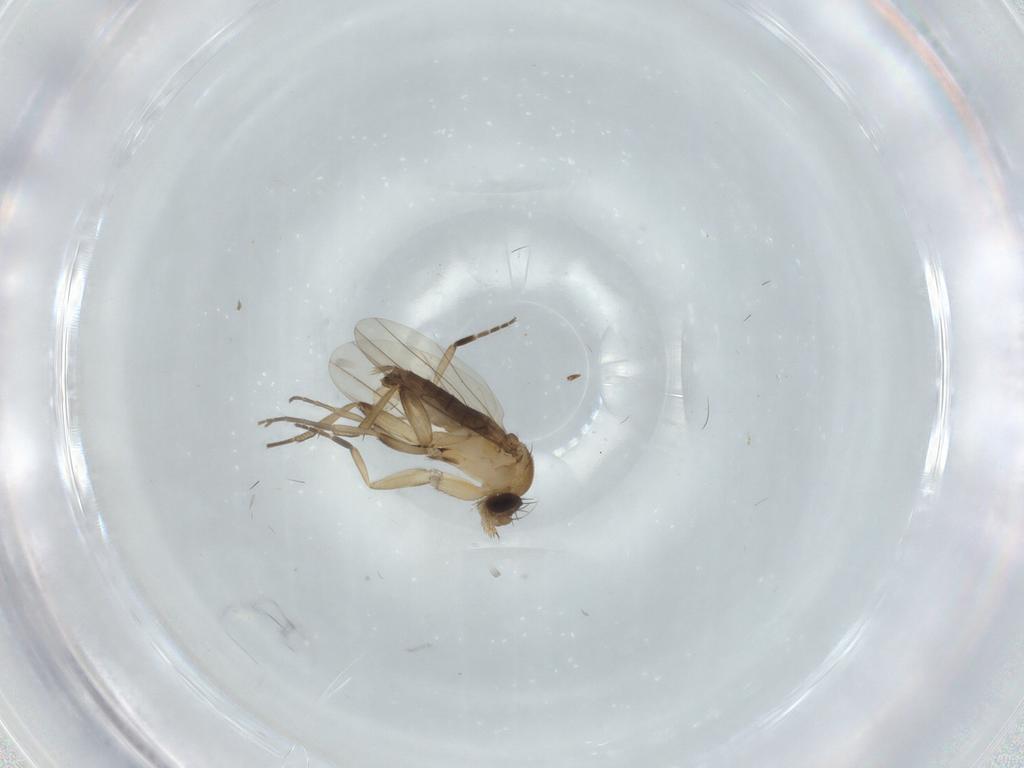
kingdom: Animalia
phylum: Arthropoda
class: Insecta
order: Diptera
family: Phoridae
